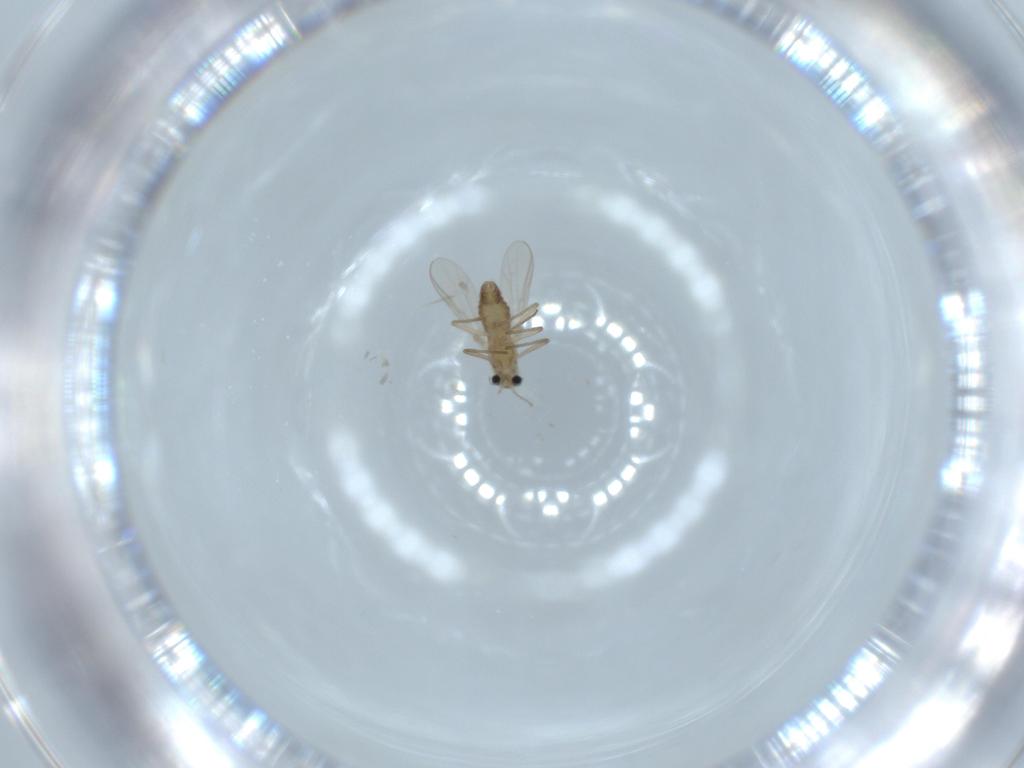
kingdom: Animalia
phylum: Arthropoda
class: Insecta
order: Diptera
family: Chironomidae
